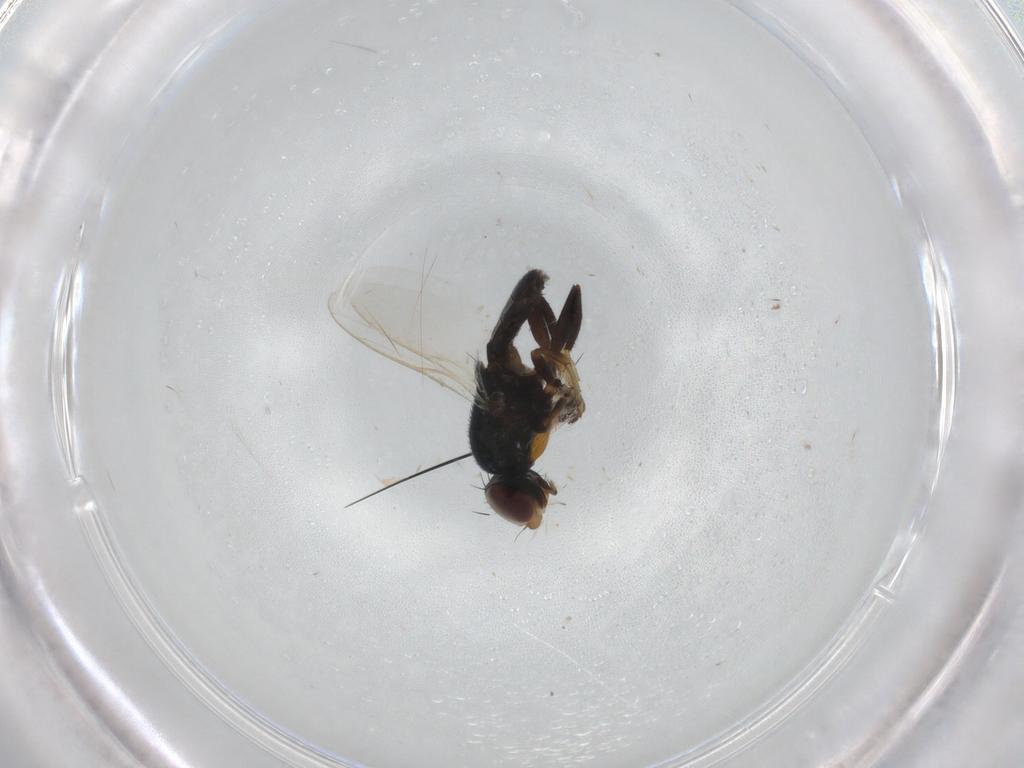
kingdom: Animalia
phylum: Arthropoda
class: Insecta
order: Diptera
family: Chloropidae
